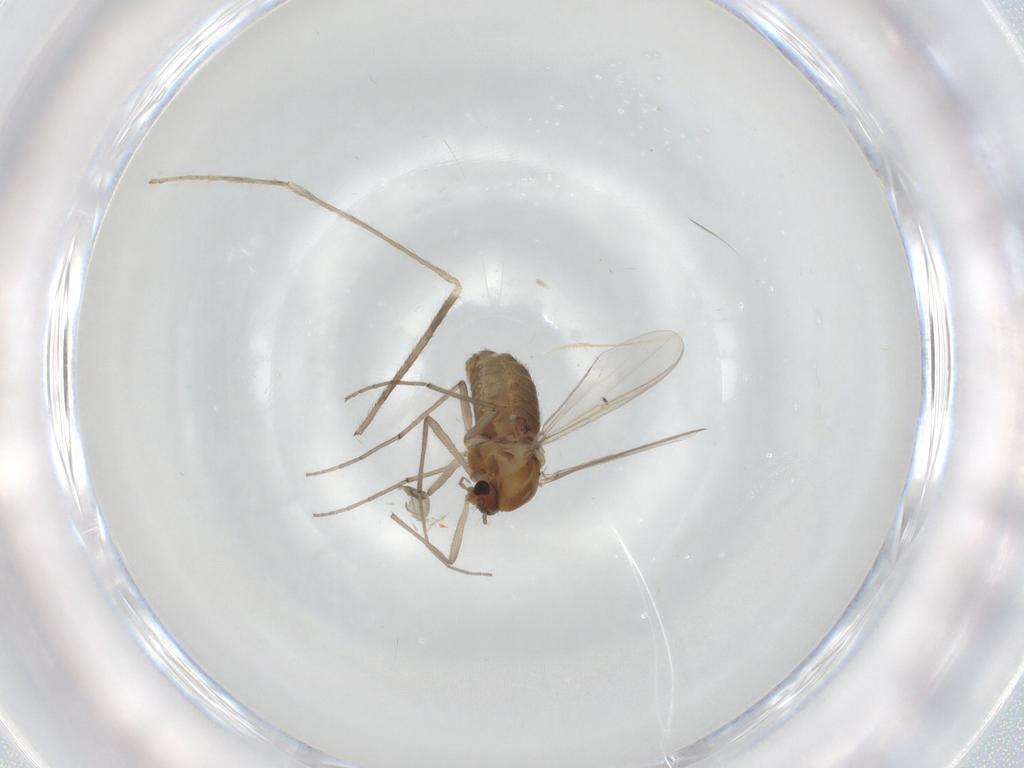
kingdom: Animalia
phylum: Arthropoda
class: Insecta
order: Diptera
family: Chironomidae
